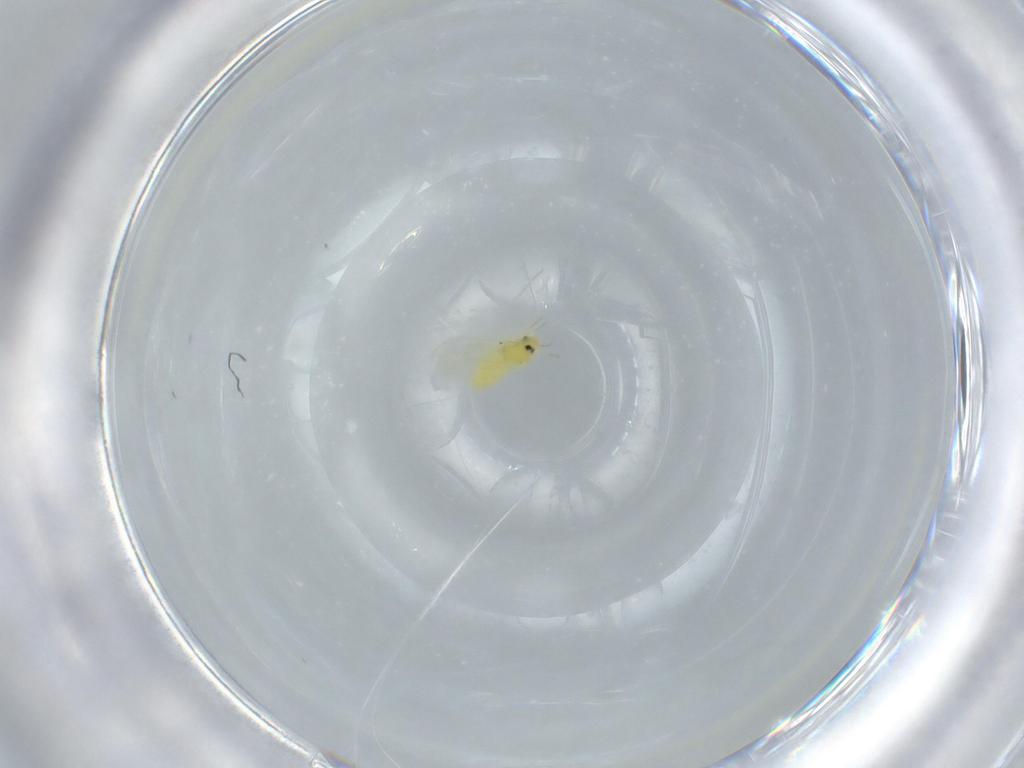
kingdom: Animalia
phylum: Arthropoda
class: Insecta
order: Hemiptera
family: Aleyrodidae
